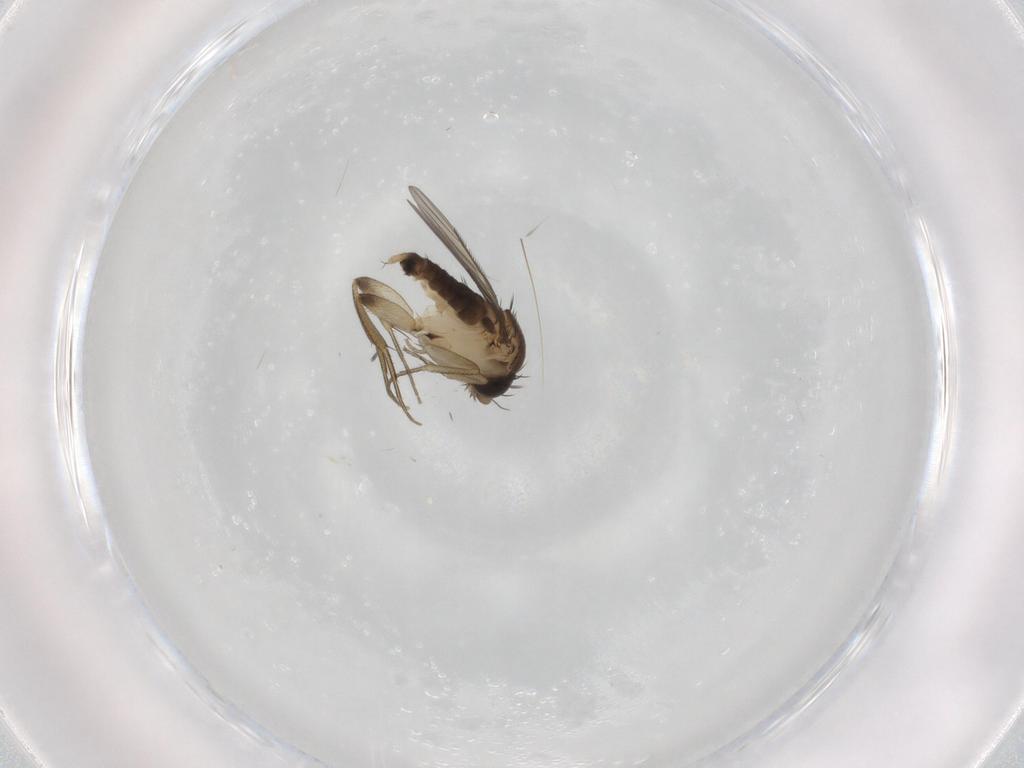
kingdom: Animalia
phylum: Arthropoda
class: Insecta
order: Diptera
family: Phoridae
